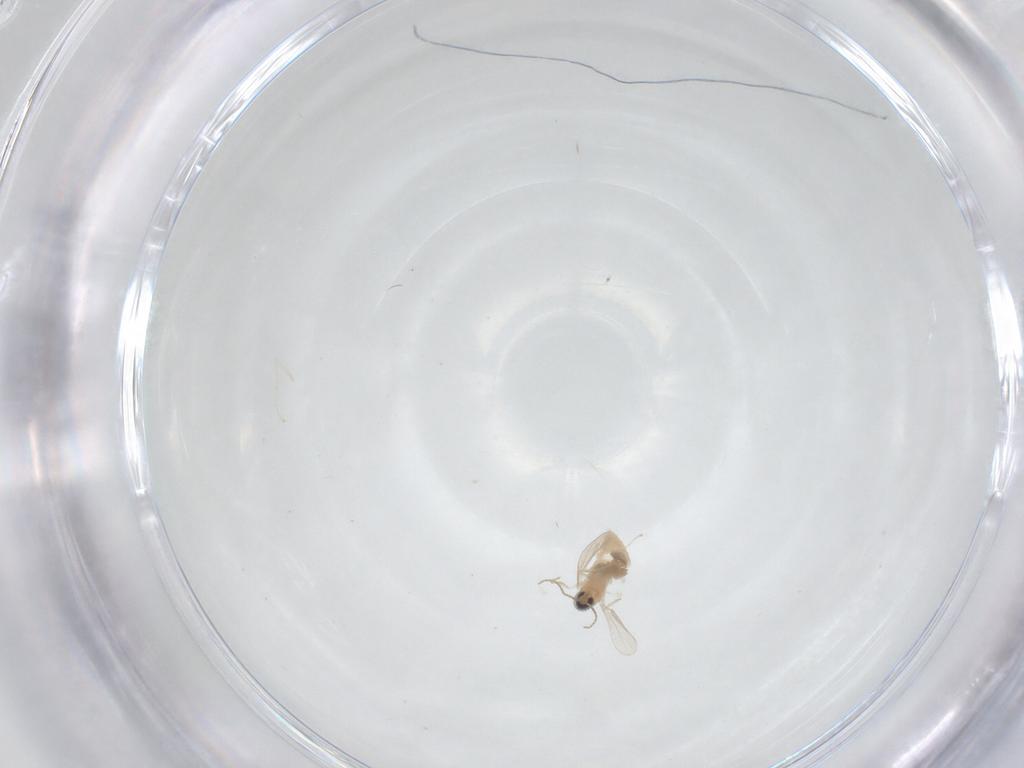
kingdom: Animalia
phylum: Arthropoda
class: Insecta
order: Diptera
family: Cecidomyiidae
